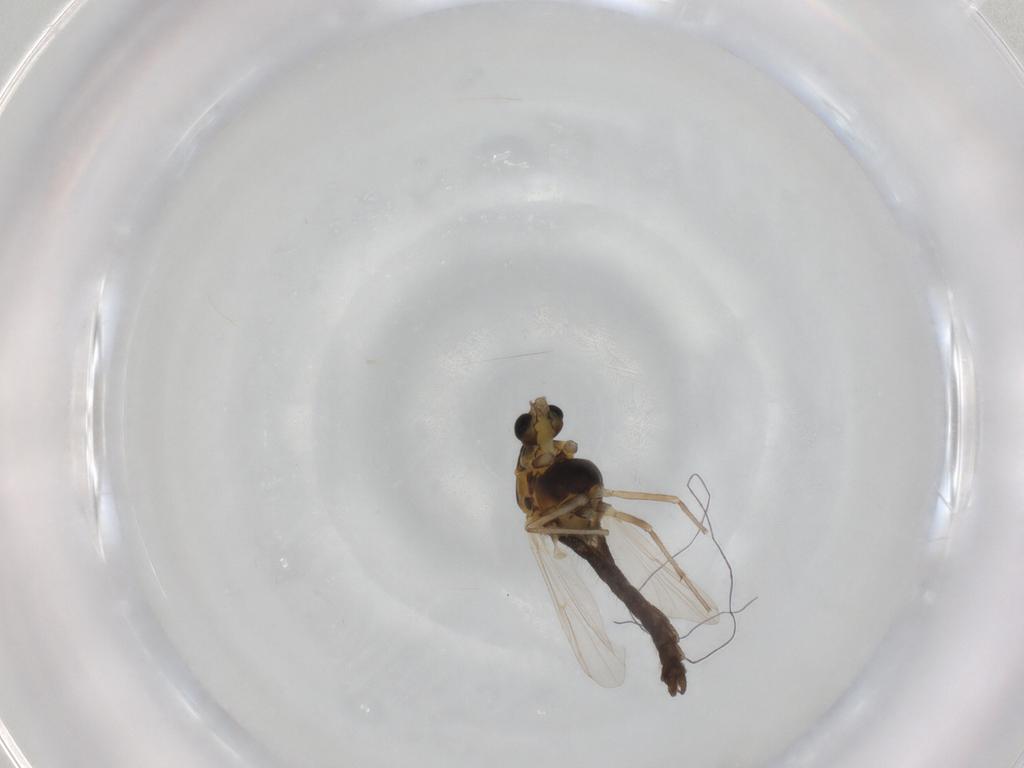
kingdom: Animalia
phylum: Arthropoda
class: Insecta
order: Diptera
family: Chironomidae
